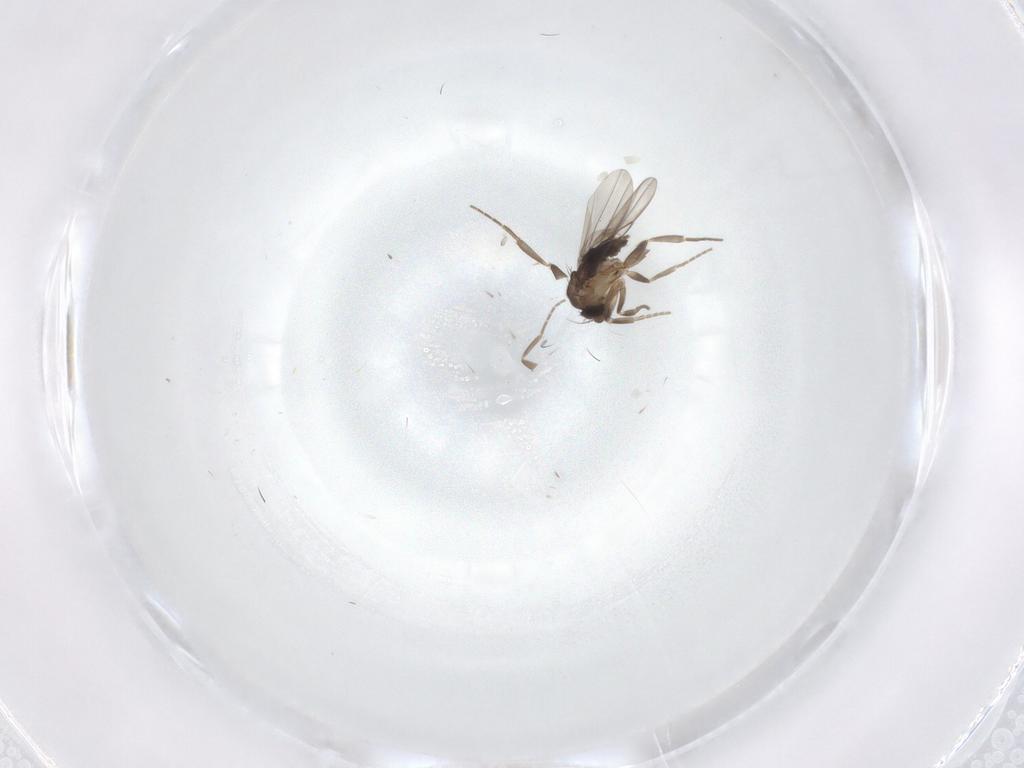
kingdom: Animalia
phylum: Arthropoda
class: Insecta
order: Diptera
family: Phoridae
